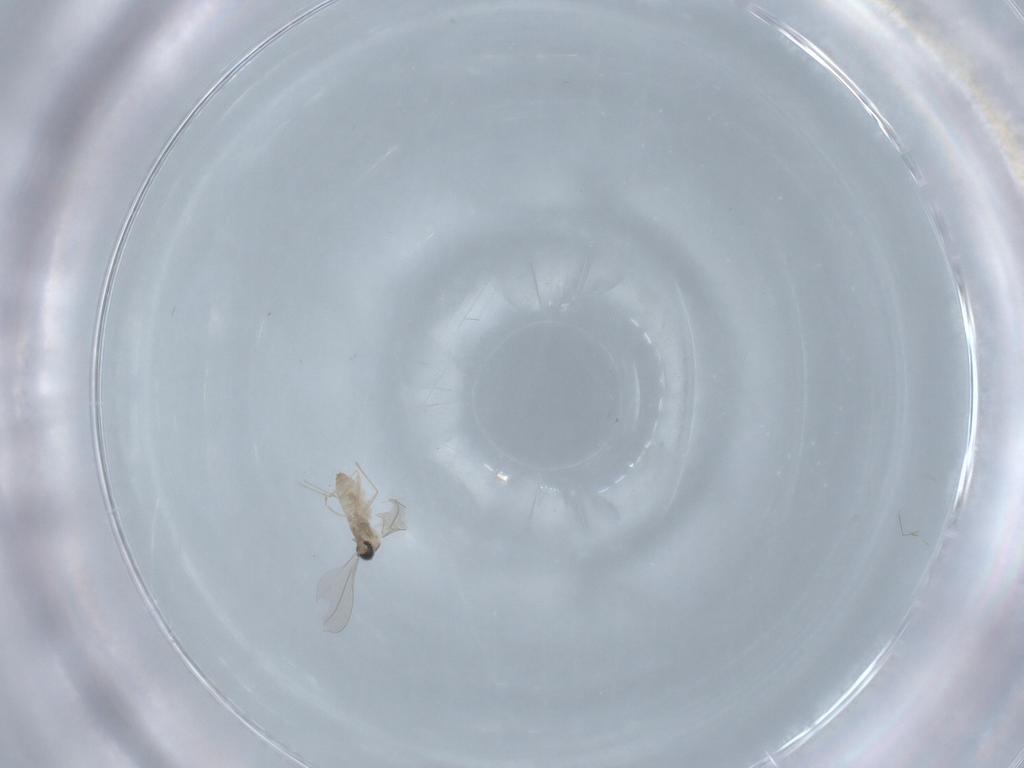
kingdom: Animalia
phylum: Arthropoda
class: Insecta
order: Diptera
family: Cecidomyiidae
